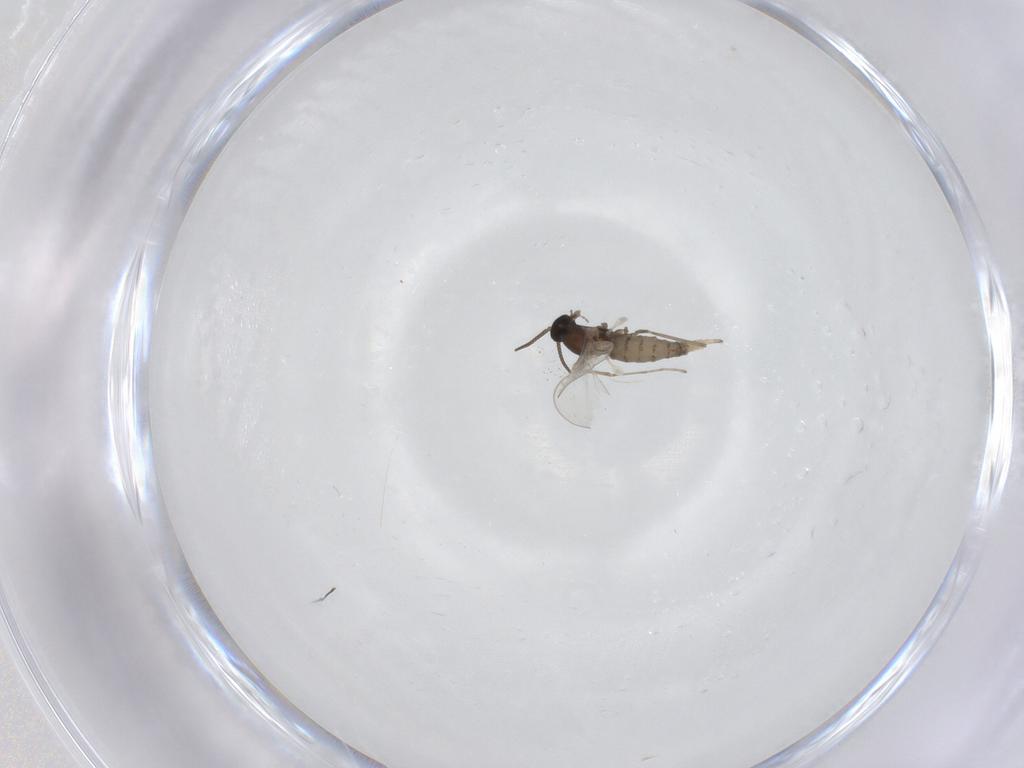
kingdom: Animalia
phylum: Arthropoda
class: Insecta
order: Diptera
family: Cecidomyiidae
